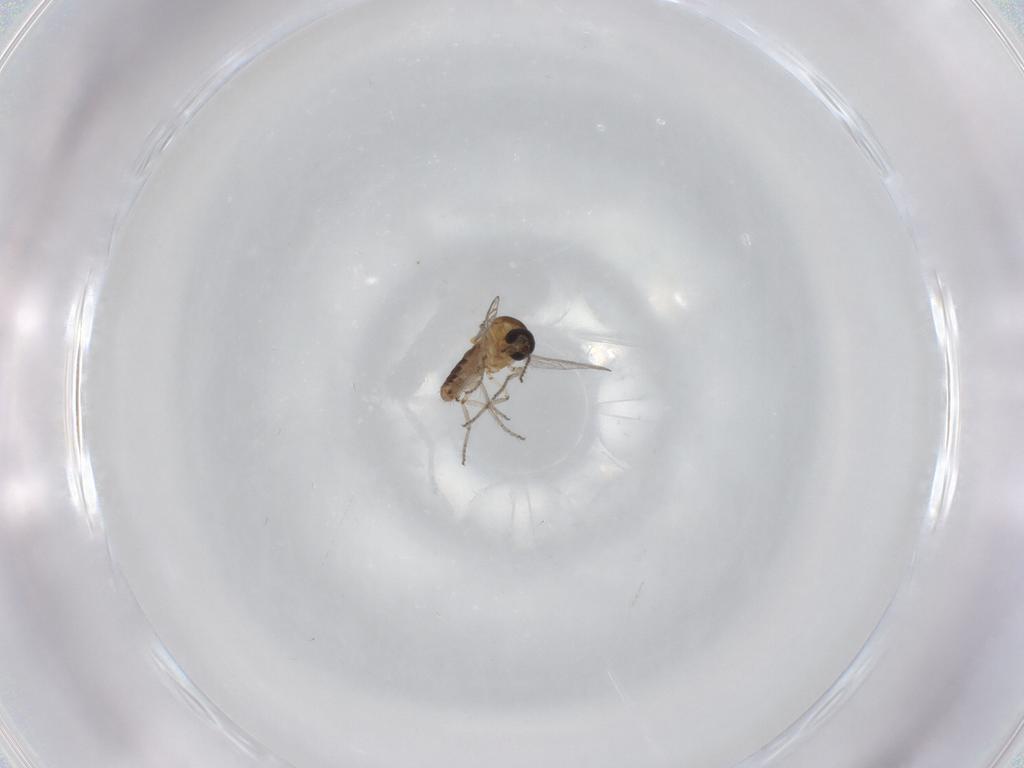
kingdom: Animalia
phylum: Arthropoda
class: Insecta
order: Diptera
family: Ceratopogonidae
